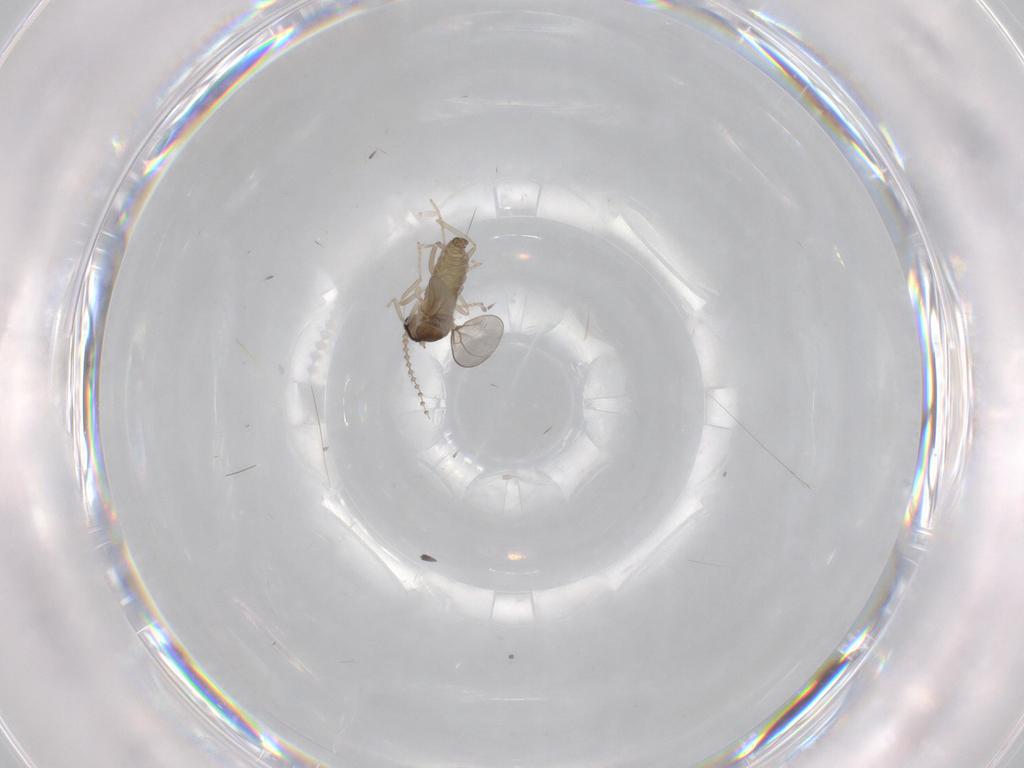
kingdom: Animalia
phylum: Arthropoda
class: Insecta
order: Diptera
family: Cecidomyiidae
